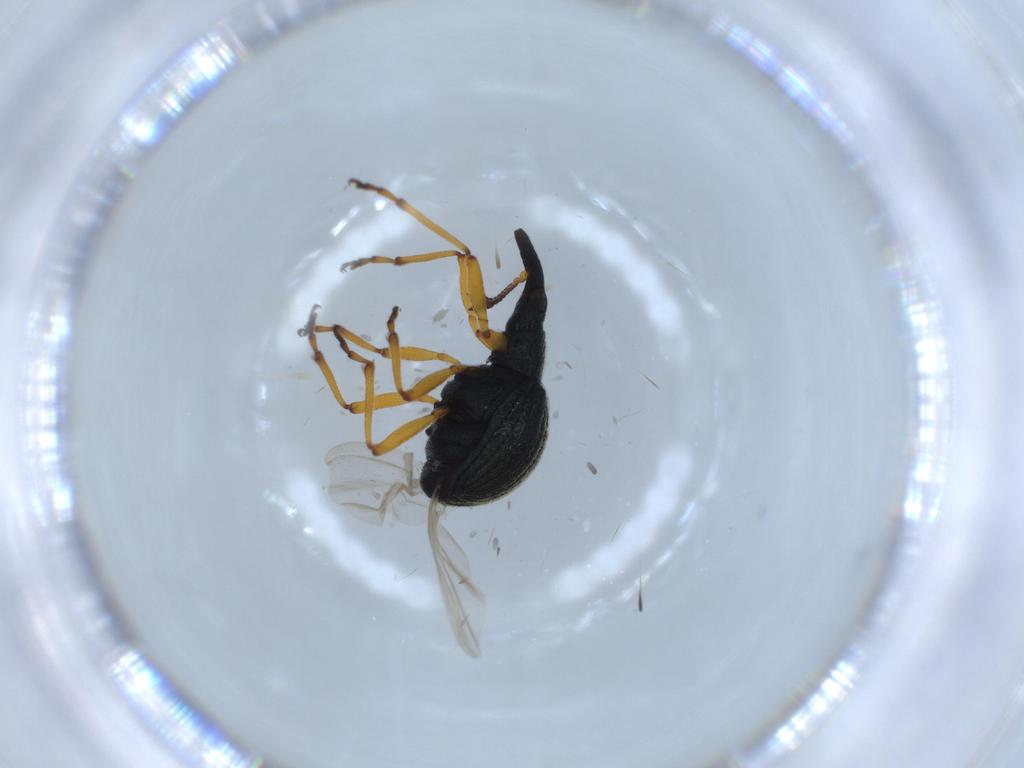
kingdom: Animalia
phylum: Arthropoda
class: Insecta
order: Coleoptera
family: Brentidae
